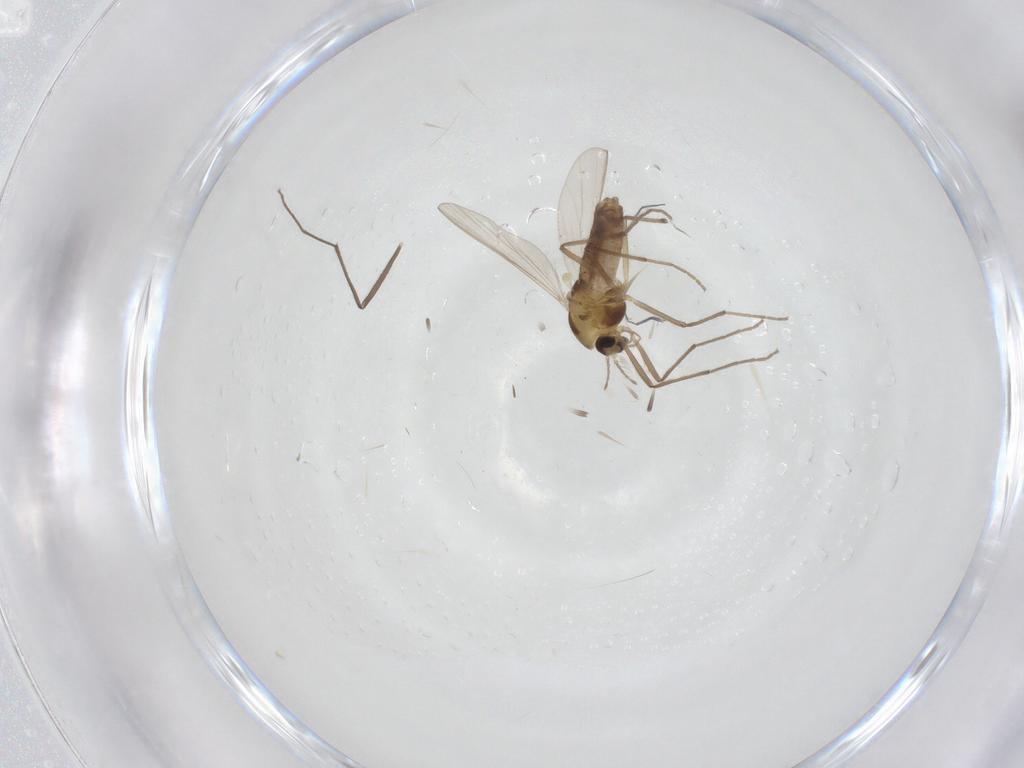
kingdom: Animalia
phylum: Arthropoda
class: Insecta
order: Diptera
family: Chironomidae
